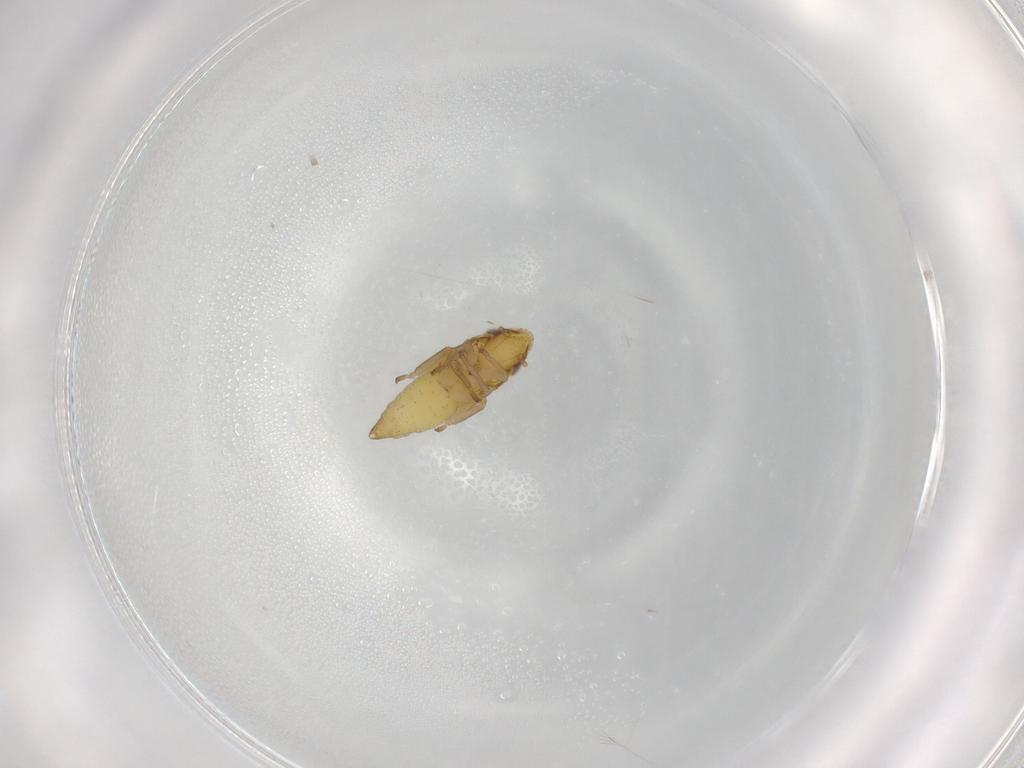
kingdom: Animalia
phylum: Arthropoda
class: Insecta
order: Hemiptera
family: Cicadellidae
